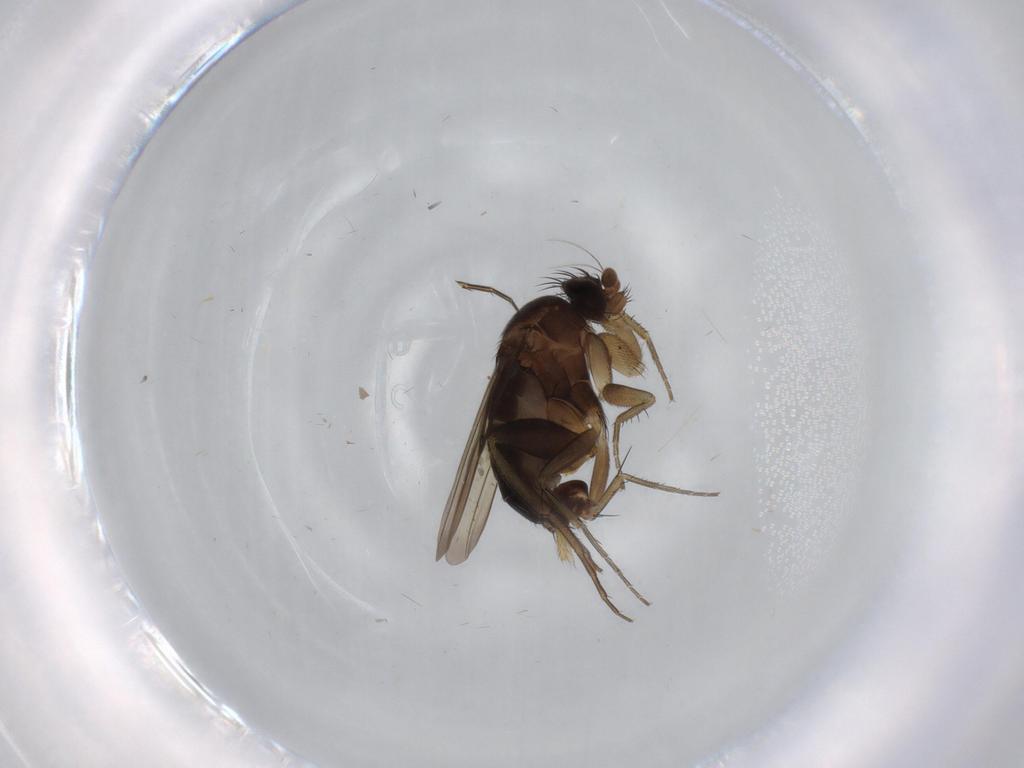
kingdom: Animalia
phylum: Arthropoda
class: Insecta
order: Diptera
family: Phoridae
